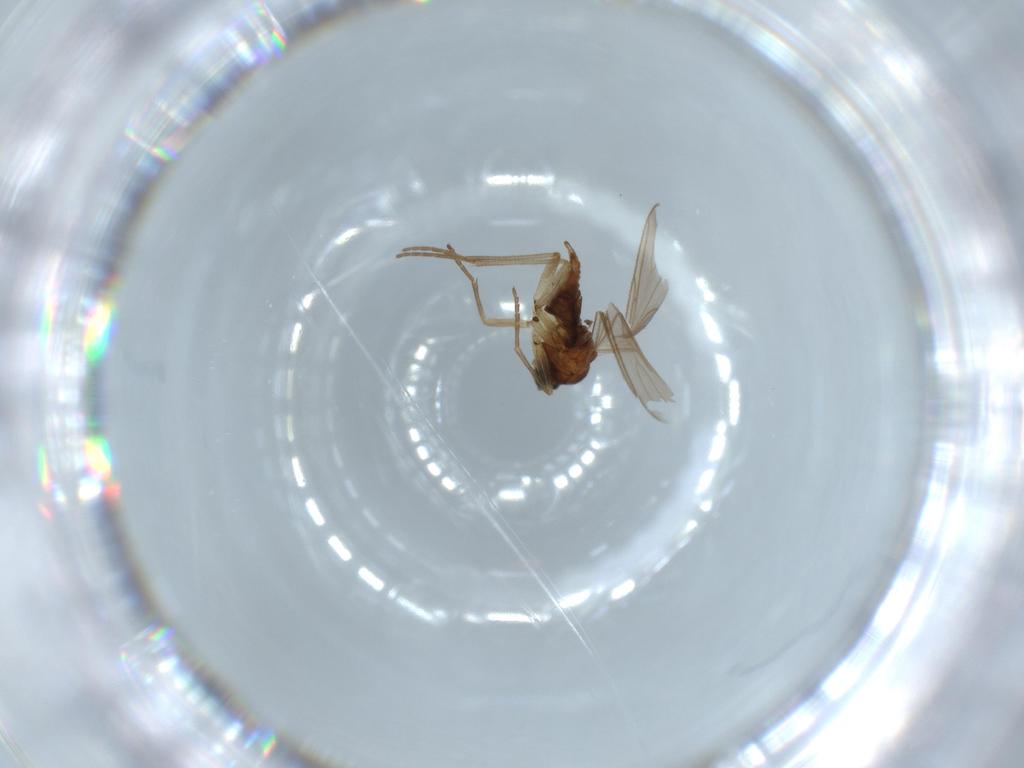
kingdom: Animalia
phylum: Arthropoda
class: Insecta
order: Diptera
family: Sciaridae
